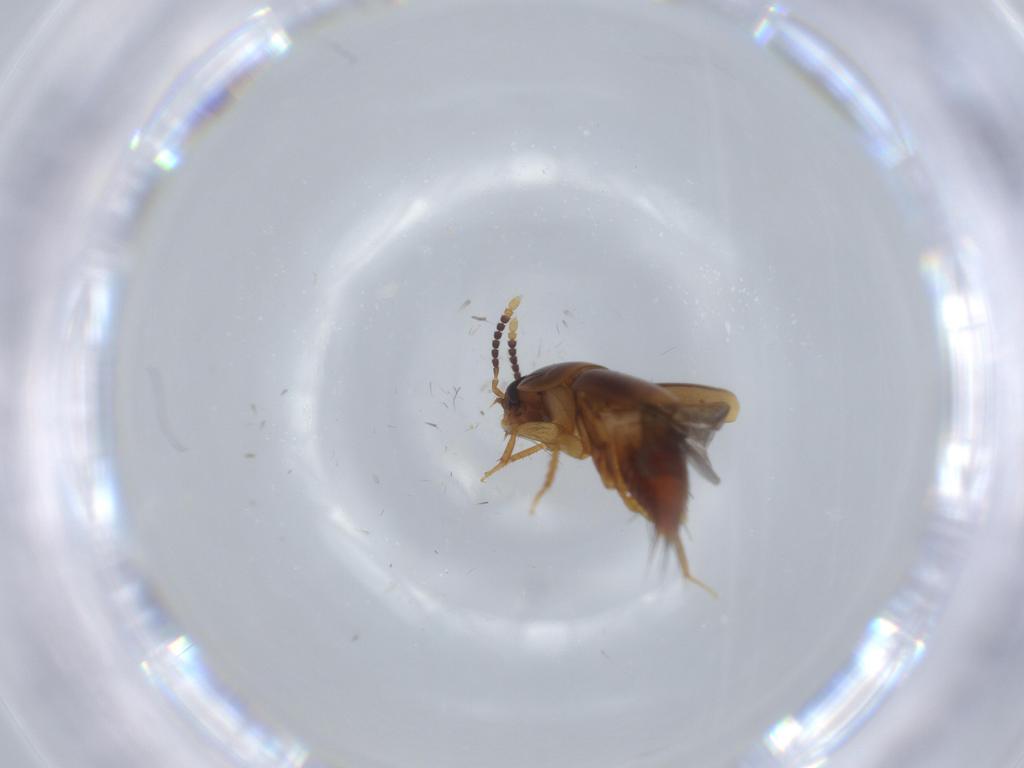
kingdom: Animalia
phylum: Arthropoda
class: Insecta
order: Coleoptera
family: Staphylinidae
